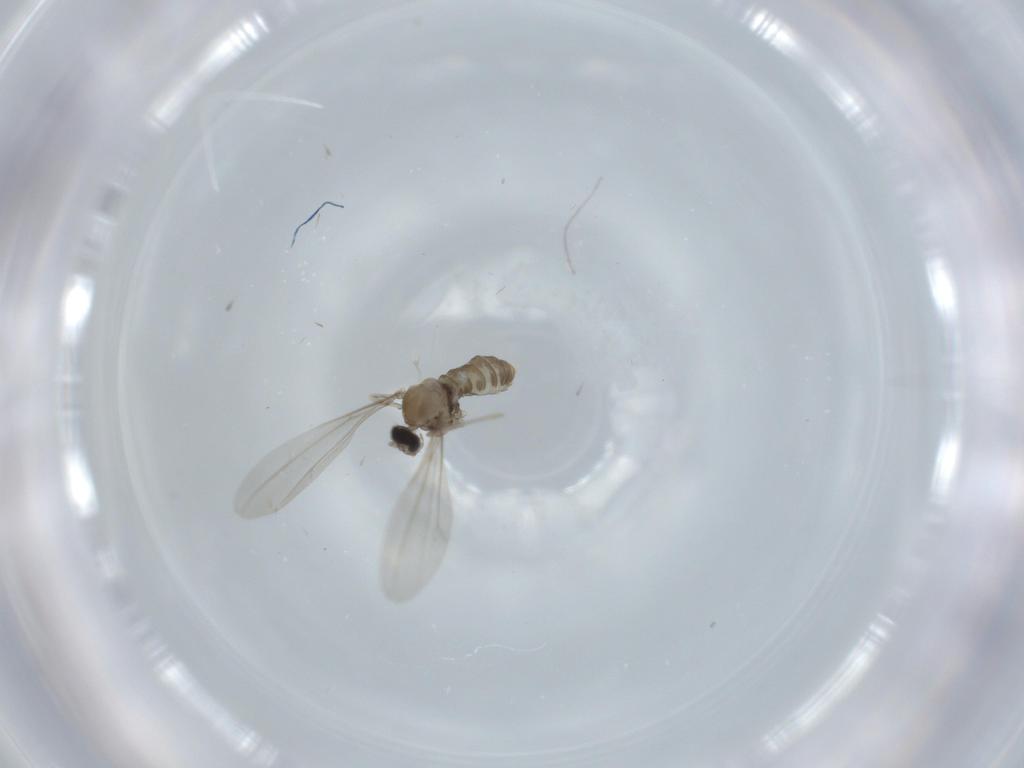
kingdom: Animalia
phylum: Arthropoda
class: Insecta
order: Diptera
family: Cecidomyiidae
